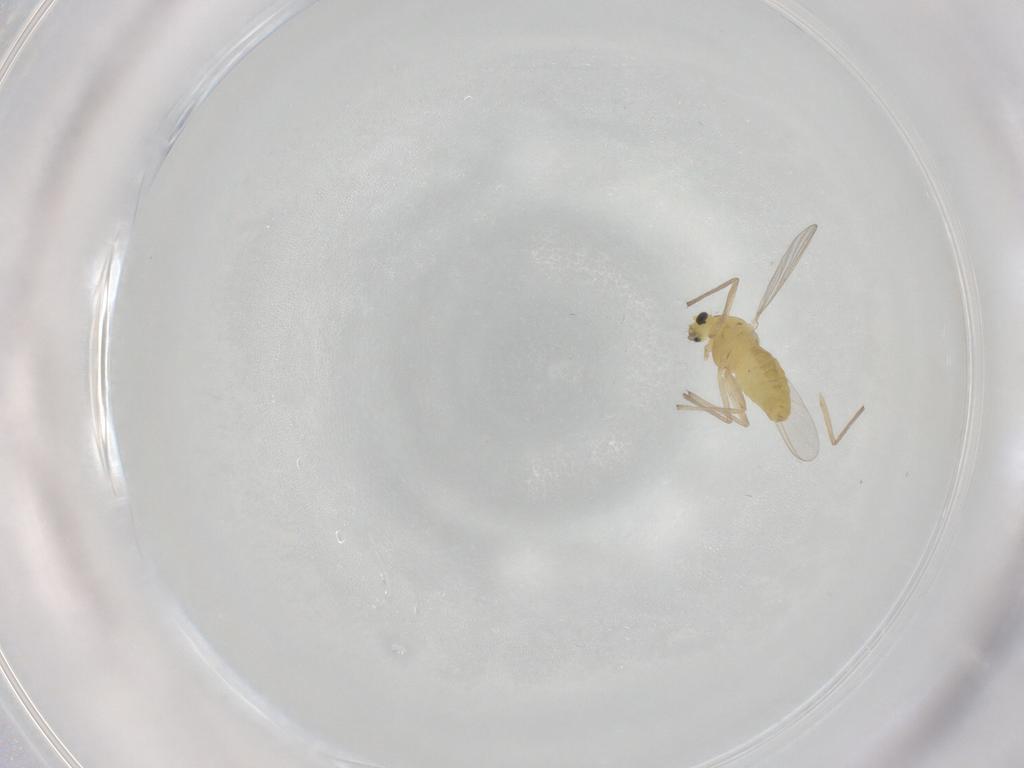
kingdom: Animalia
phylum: Arthropoda
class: Insecta
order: Diptera
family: Chironomidae
